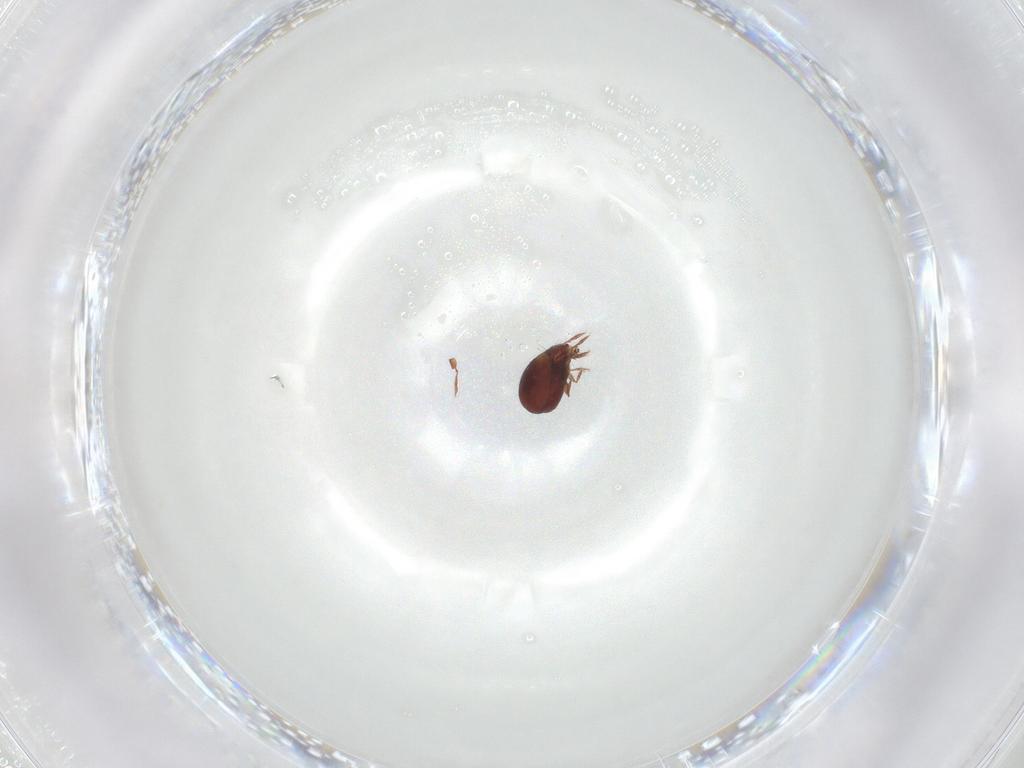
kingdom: Animalia
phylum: Arthropoda
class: Arachnida
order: Sarcoptiformes
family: Humerobatidae
